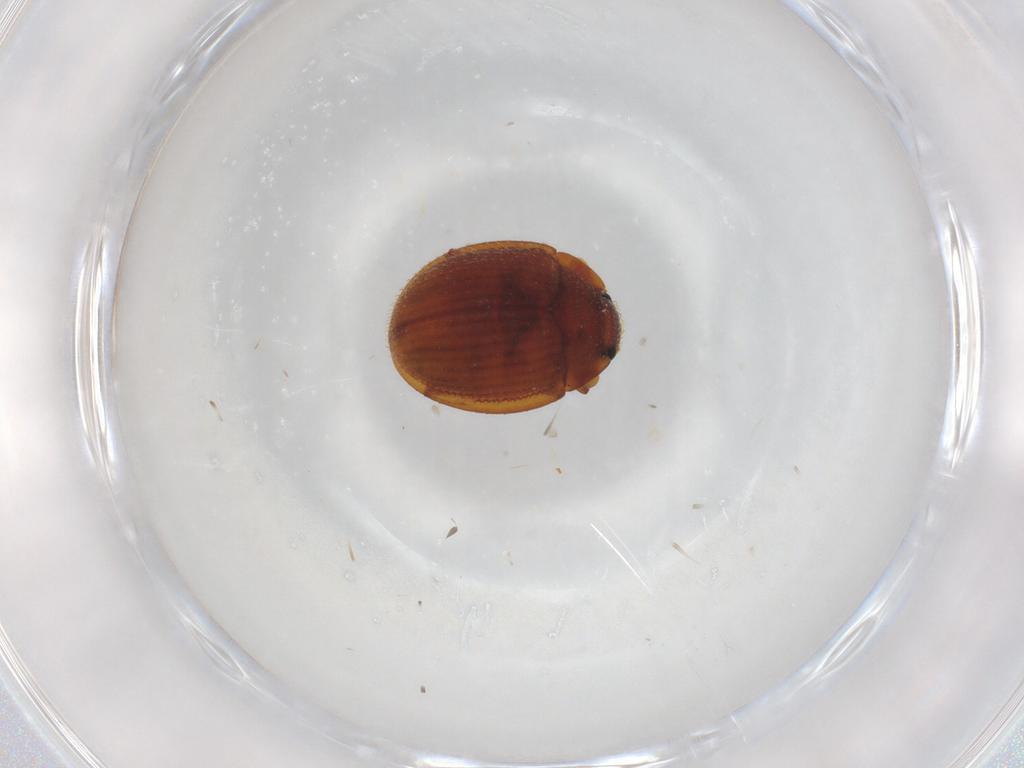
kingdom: Animalia
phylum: Arthropoda
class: Insecta
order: Coleoptera
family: Euxestidae
